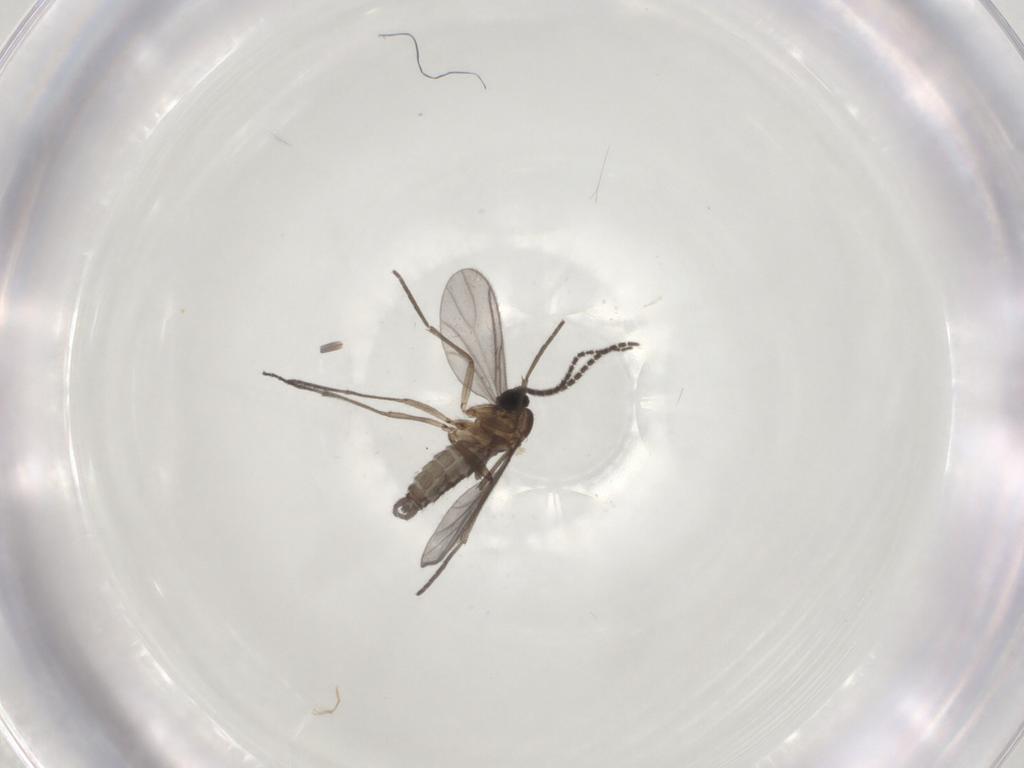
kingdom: Animalia
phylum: Arthropoda
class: Insecta
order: Diptera
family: Sciaridae
